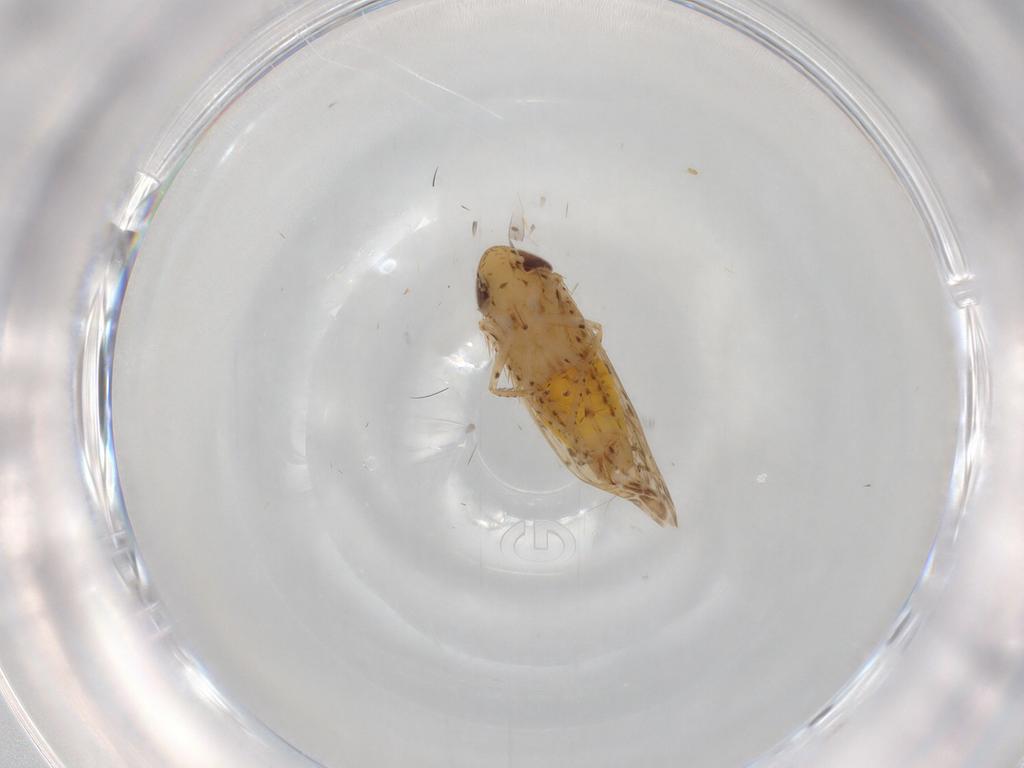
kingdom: Animalia
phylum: Arthropoda
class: Insecta
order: Hemiptera
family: Cicadellidae
